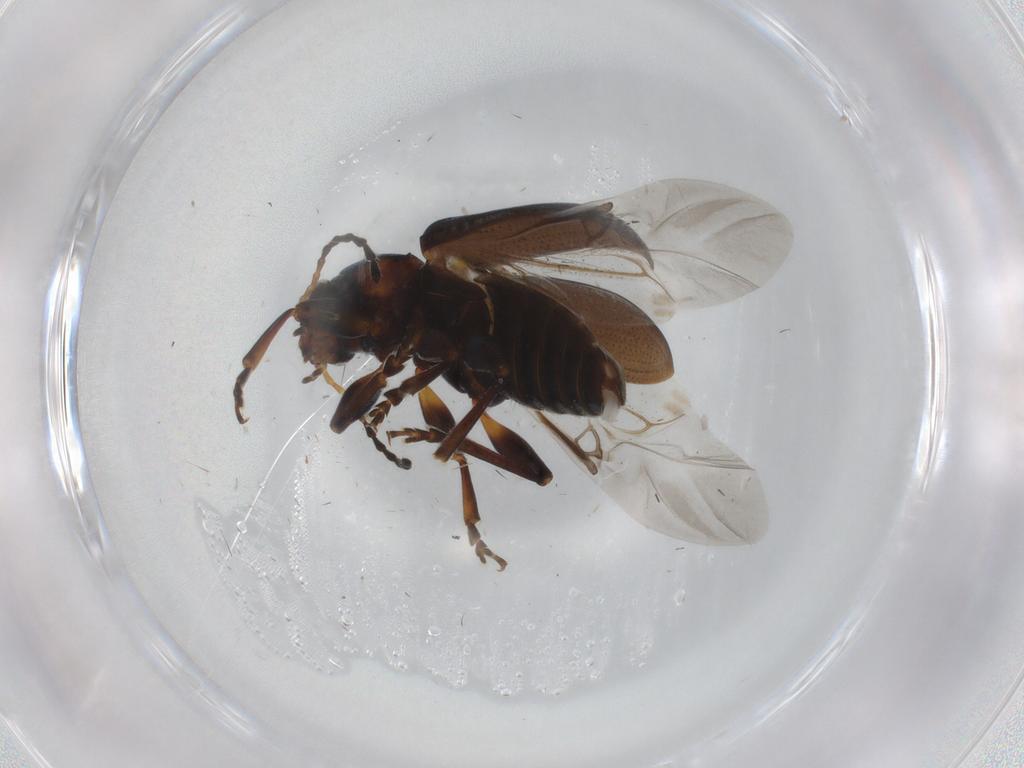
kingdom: Animalia
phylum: Arthropoda
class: Insecta
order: Coleoptera
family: Chrysomelidae
